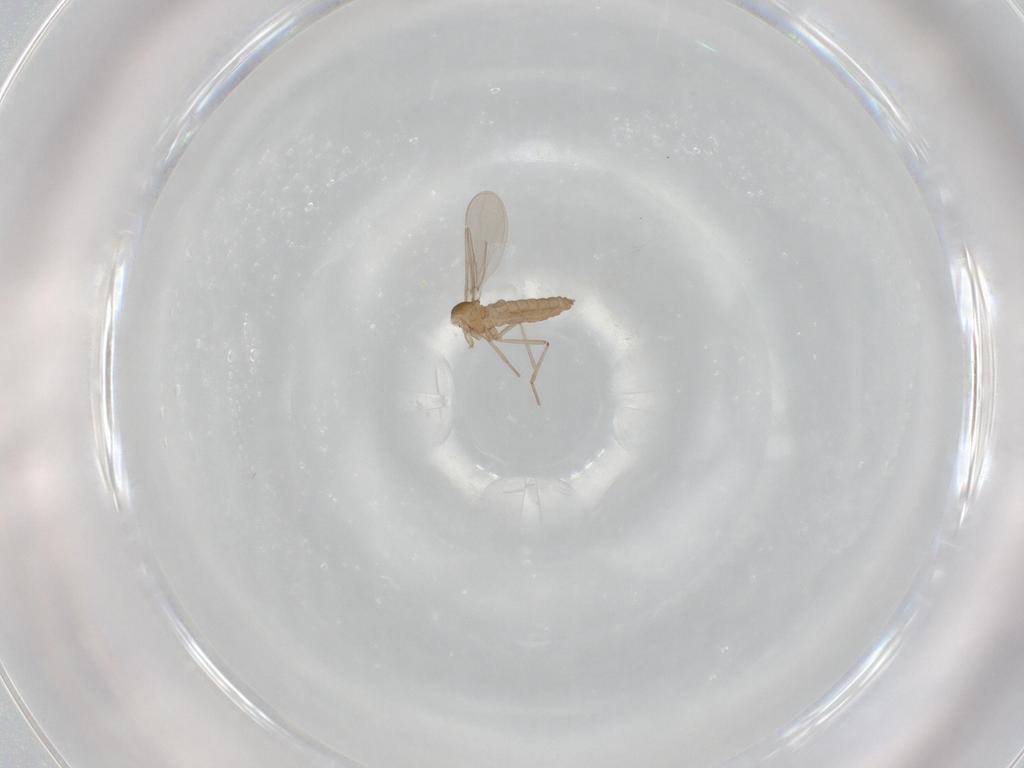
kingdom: Animalia
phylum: Arthropoda
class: Insecta
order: Diptera
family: Cecidomyiidae
